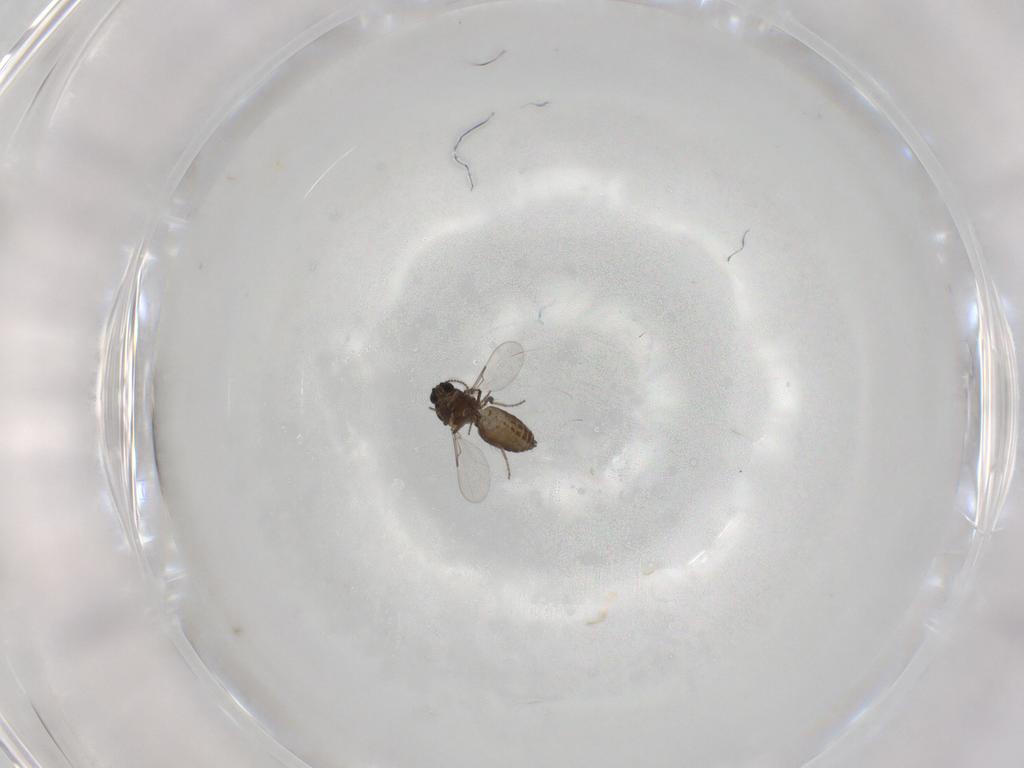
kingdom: Animalia
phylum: Arthropoda
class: Insecta
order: Diptera
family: Ceratopogonidae
